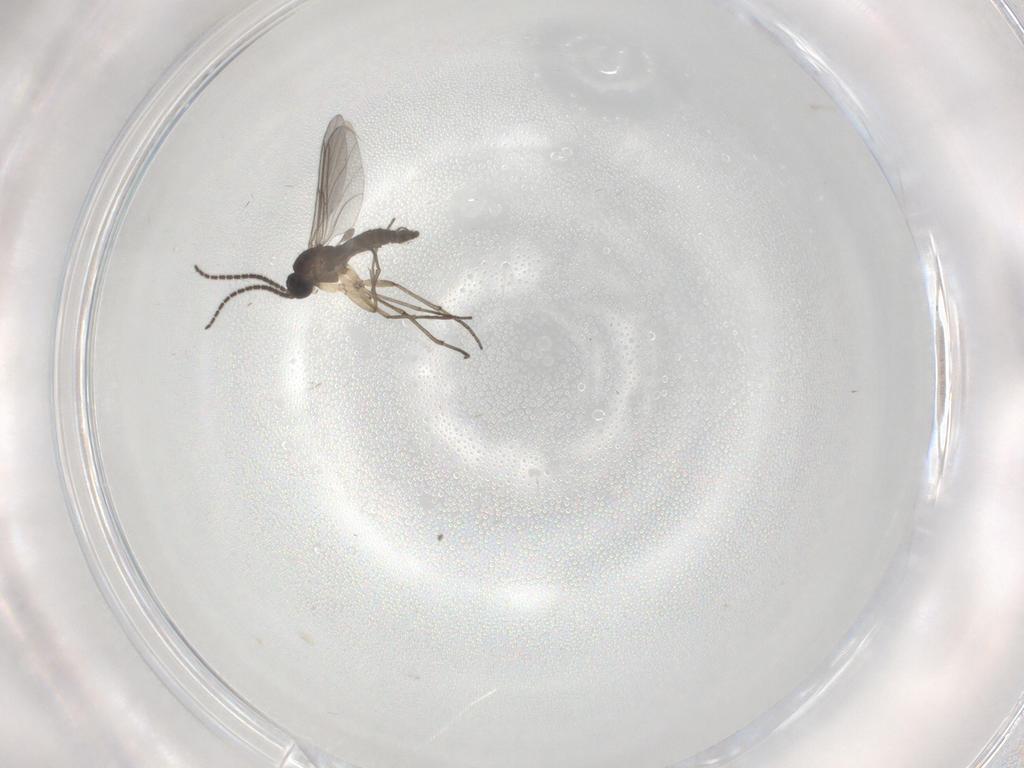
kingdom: Animalia
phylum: Arthropoda
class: Insecta
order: Diptera
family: Sciaridae
